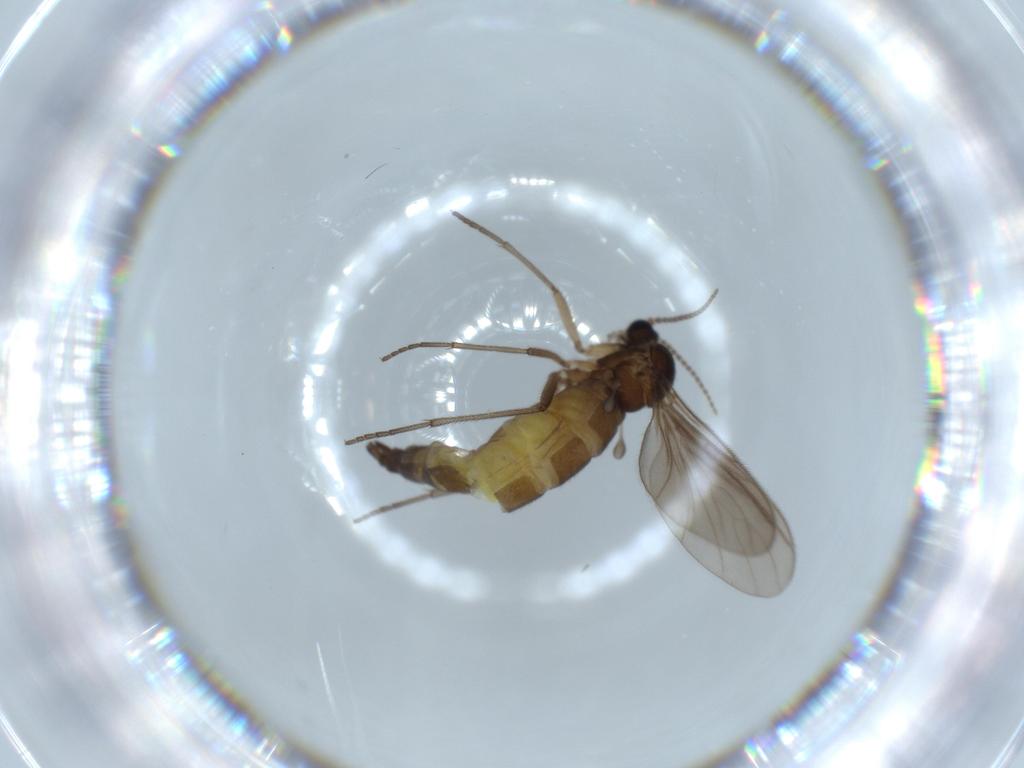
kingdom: Animalia
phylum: Arthropoda
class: Insecta
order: Diptera
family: Sciaridae
